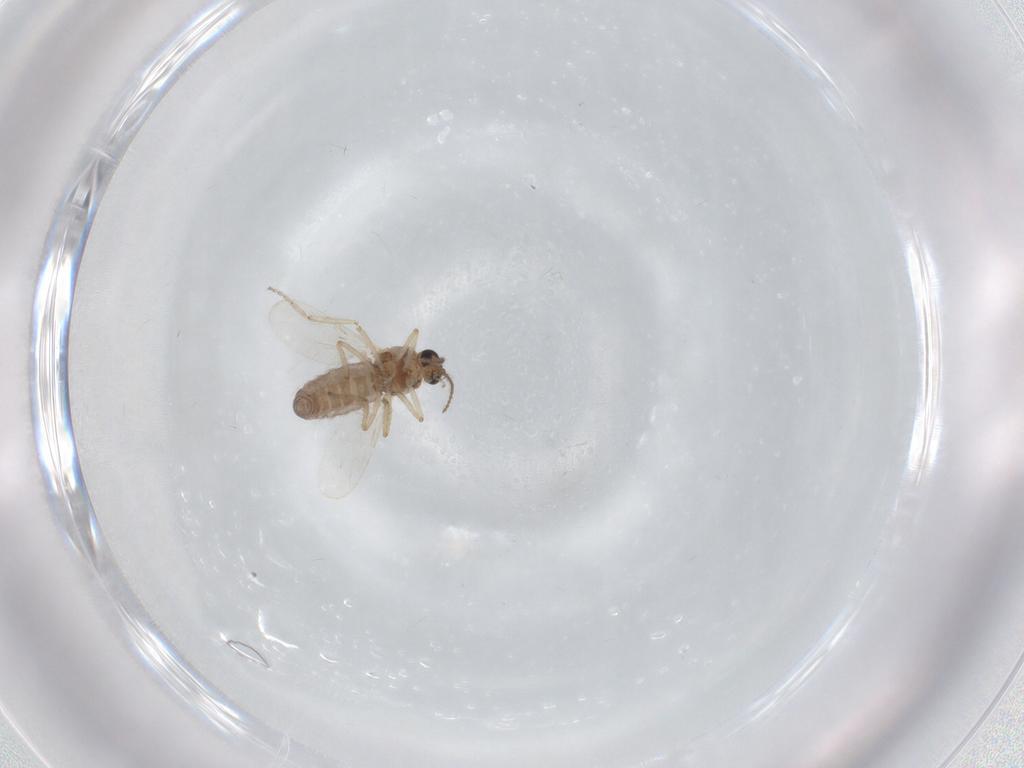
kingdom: Animalia
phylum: Arthropoda
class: Insecta
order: Diptera
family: Ceratopogonidae
